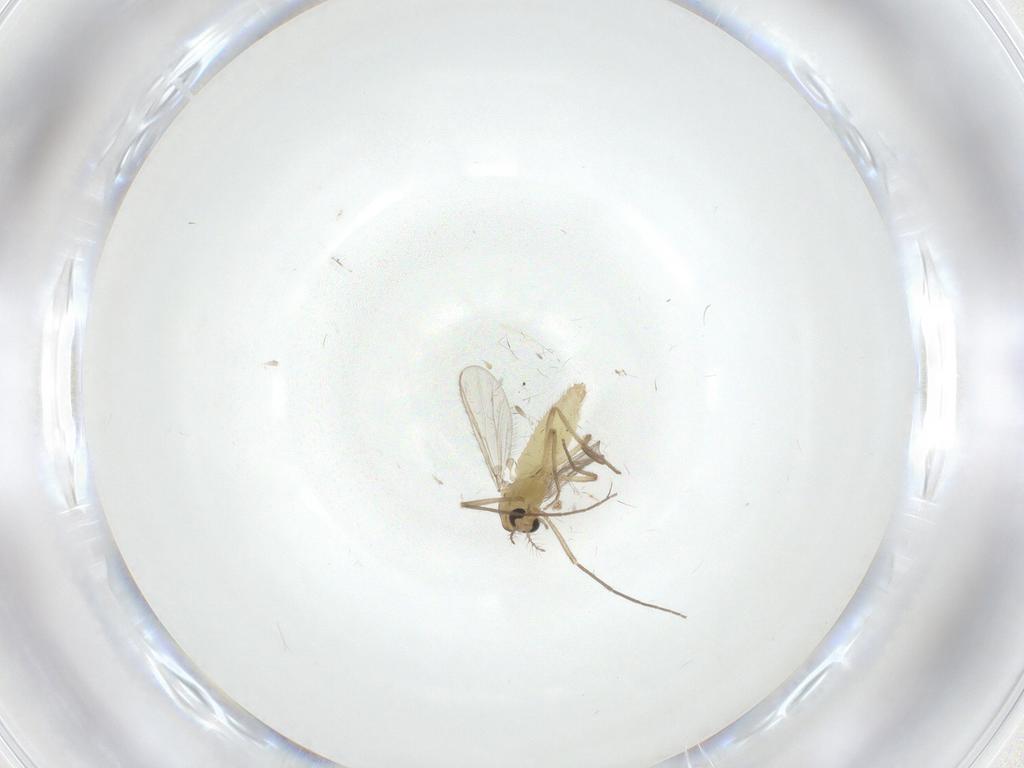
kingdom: Animalia
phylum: Arthropoda
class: Insecta
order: Diptera
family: Chironomidae
